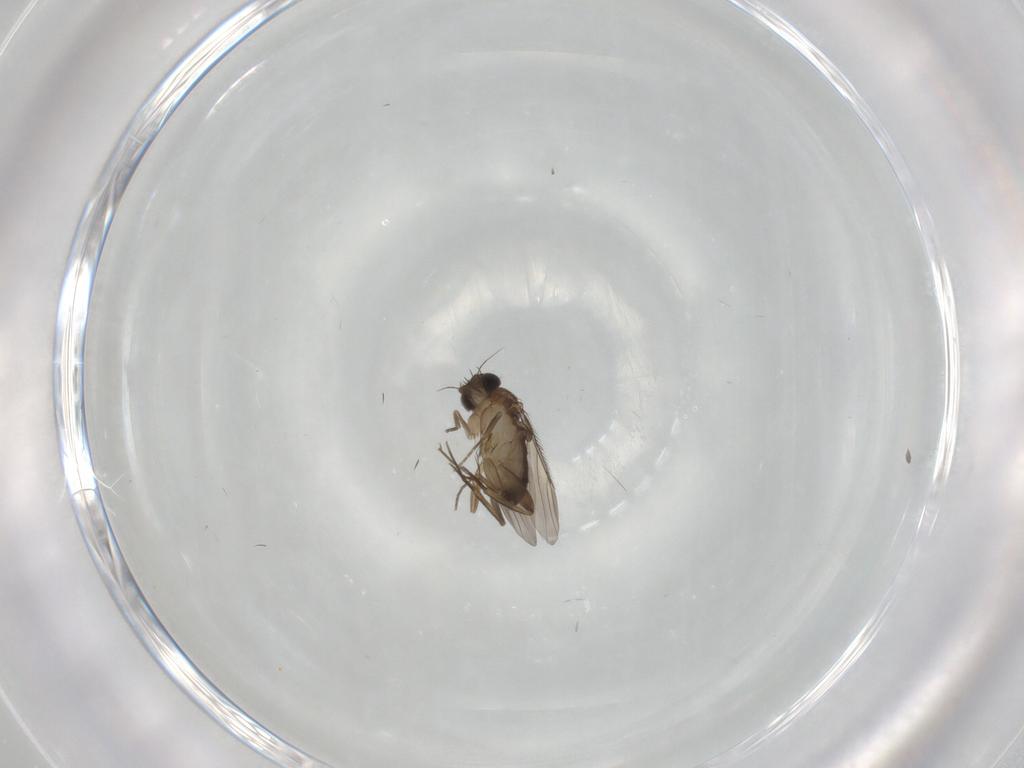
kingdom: Animalia
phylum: Arthropoda
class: Insecta
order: Diptera
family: Phoridae
